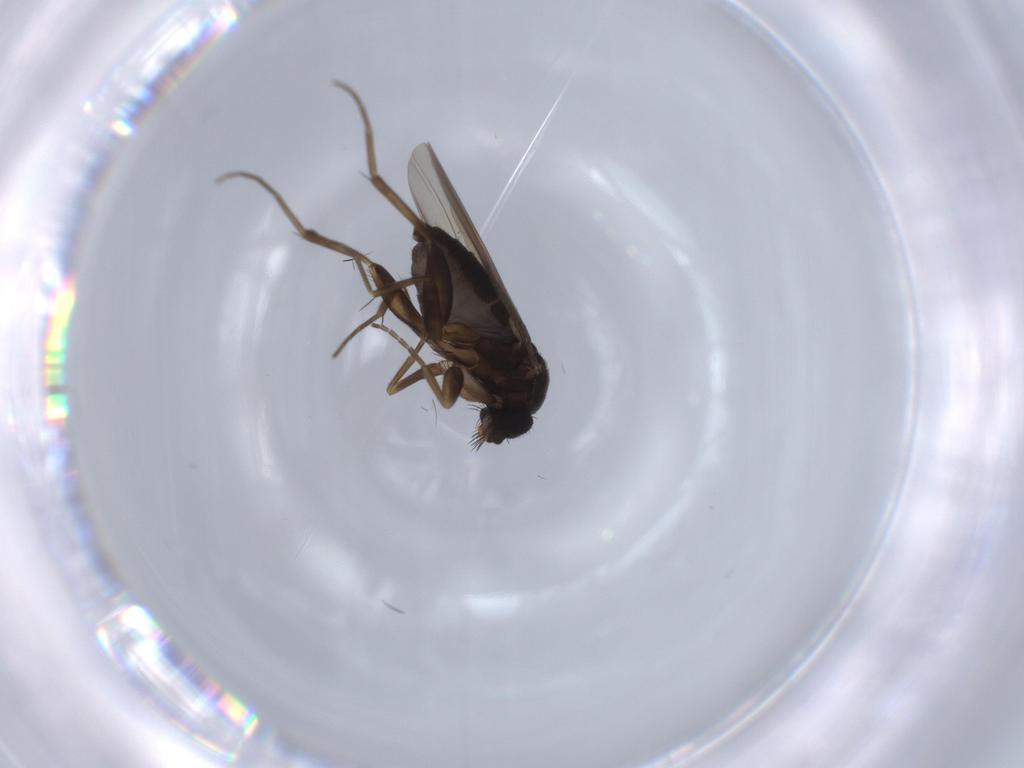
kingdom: Animalia
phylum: Arthropoda
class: Insecta
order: Diptera
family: Phoridae
